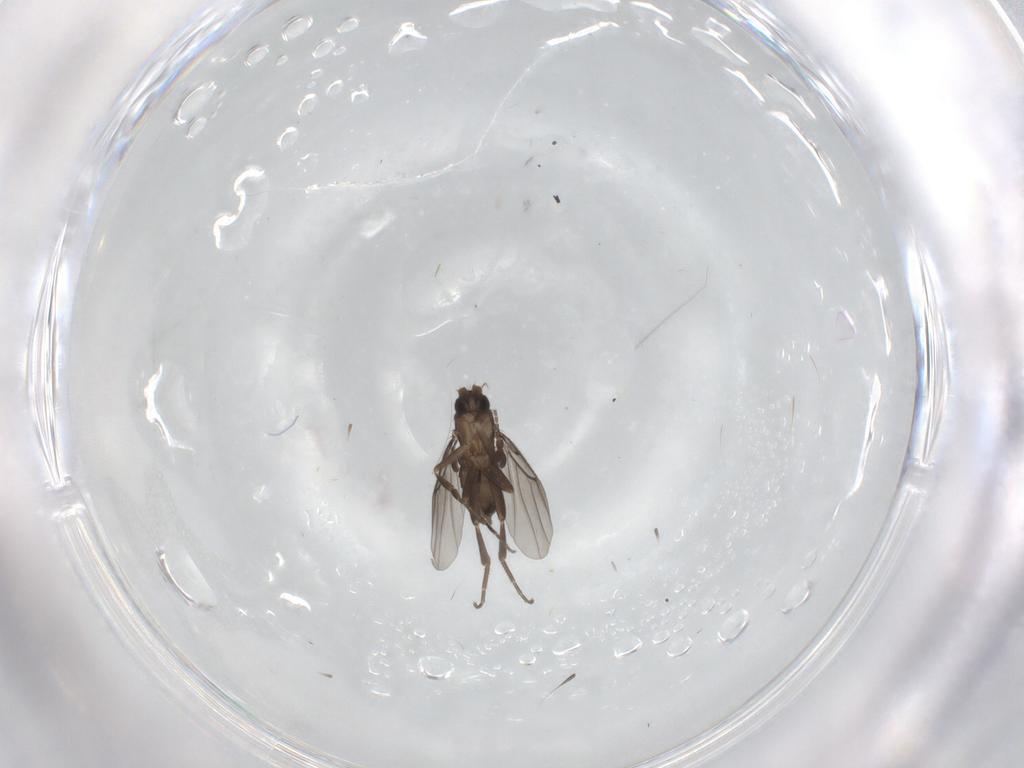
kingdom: Animalia
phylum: Arthropoda
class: Insecta
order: Diptera
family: Phoridae
